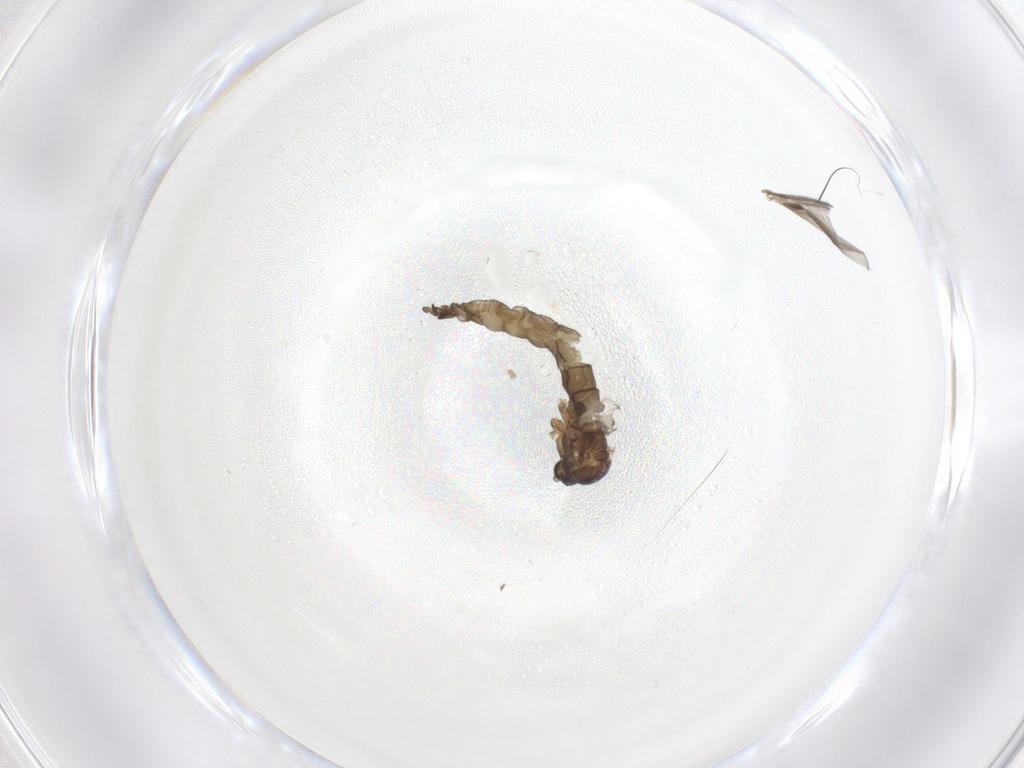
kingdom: Animalia
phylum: Arthropoda
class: Insecta
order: Diptera
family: Sciaridae
